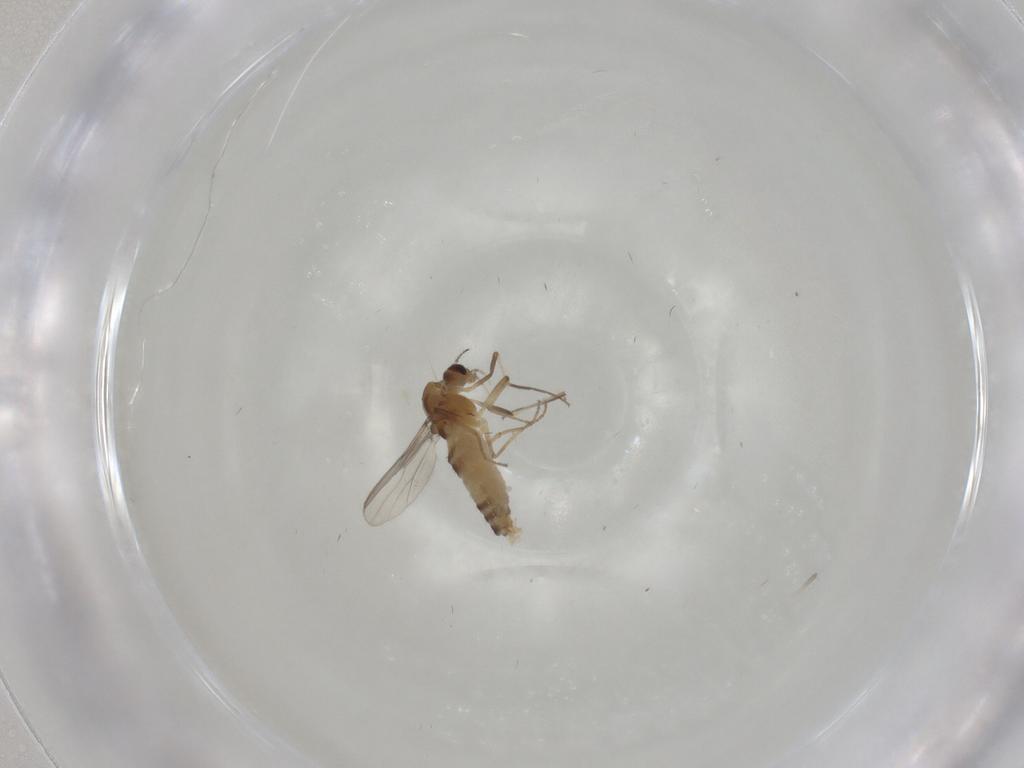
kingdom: Animalia
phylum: Arthropoda
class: Insecta
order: Diptera
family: Chironomidae
